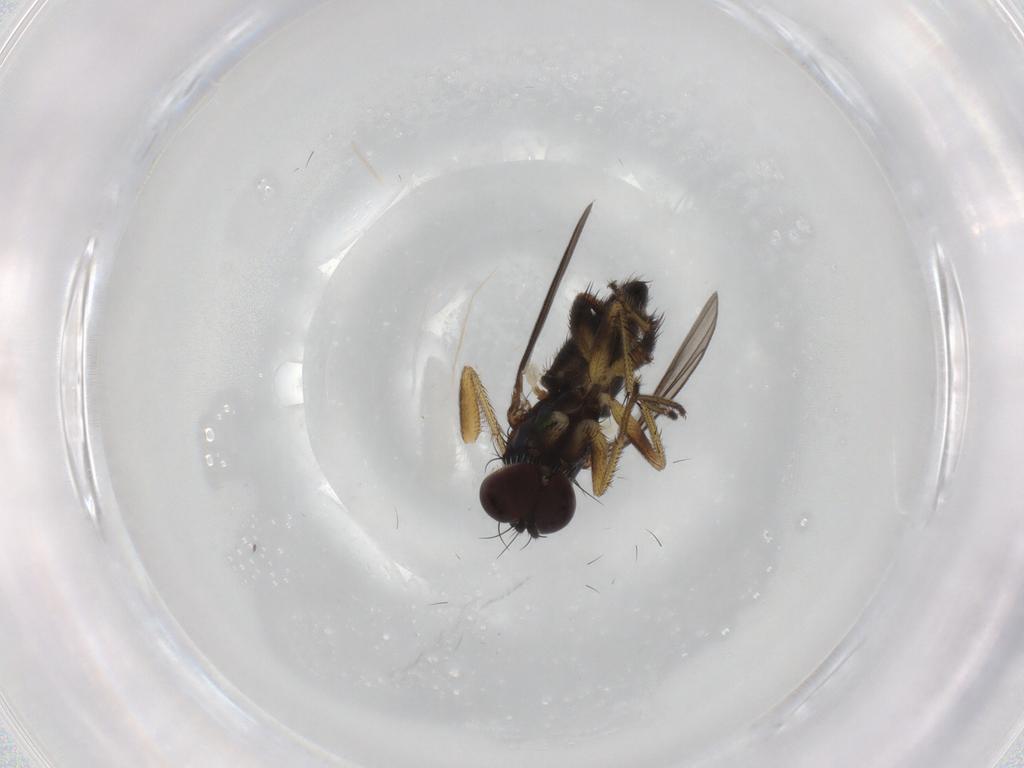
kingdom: Animalia
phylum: Arthropoda
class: Insecta
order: Diptera
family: Dolichopodidae
